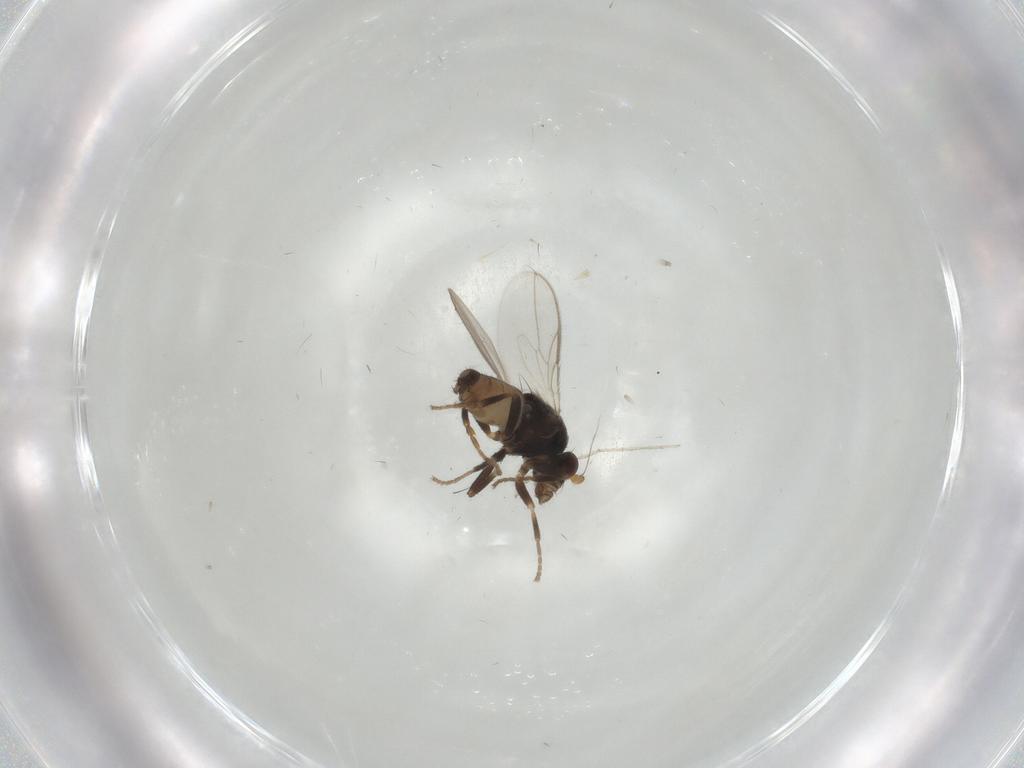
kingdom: Animalia
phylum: Arthropoda
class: Insecta
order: Diptera
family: Sphaeroceridae
